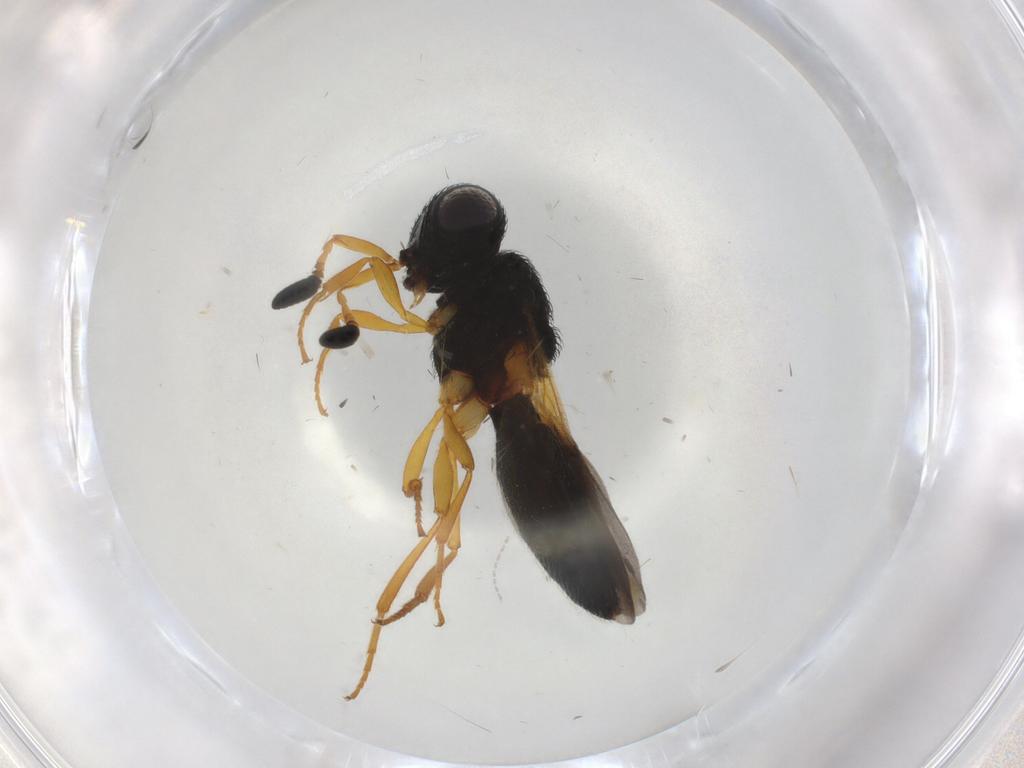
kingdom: Animalia
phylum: Arthropoda
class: Insecta
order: Hymenoptera
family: Scelionidae
